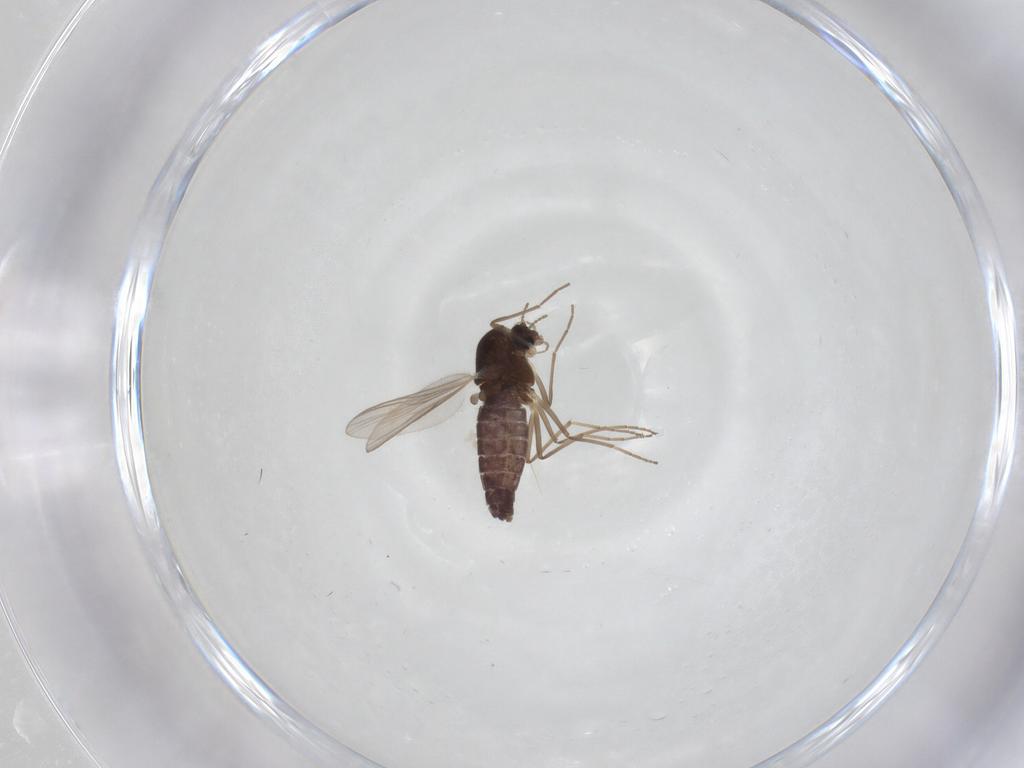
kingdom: Animalia
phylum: Arthropoda
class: Insecta
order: Diptera
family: Chironomidae
